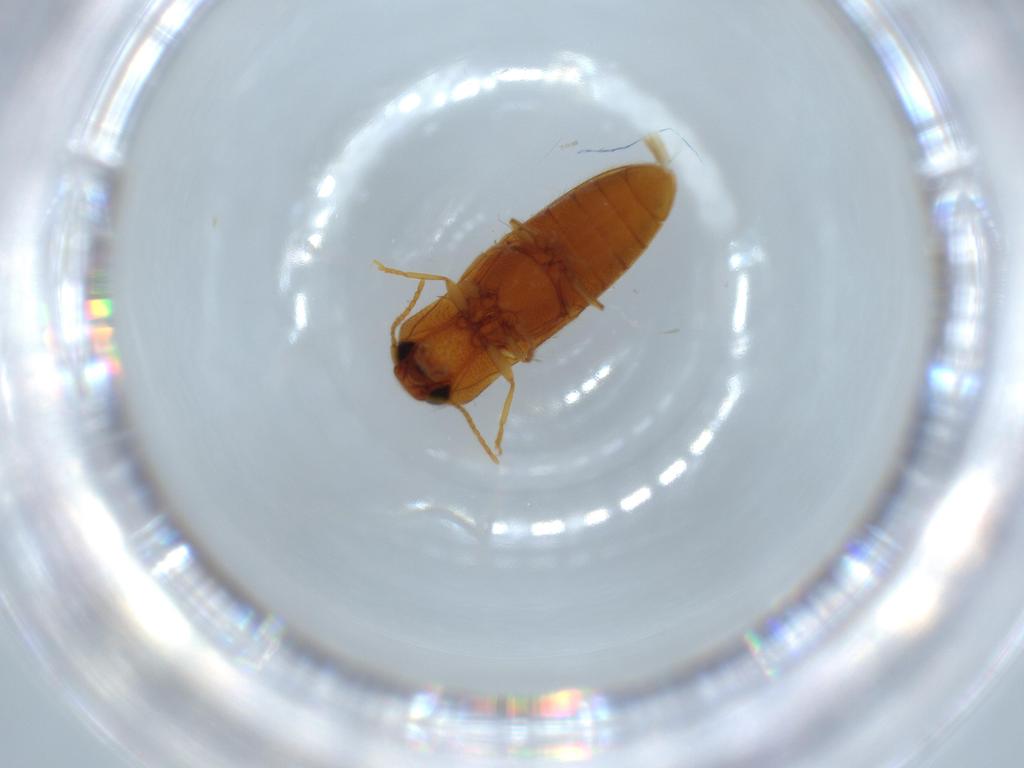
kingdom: Animalia
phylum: Arthropoda
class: Insecta
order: Coleoptera
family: Elateridae
